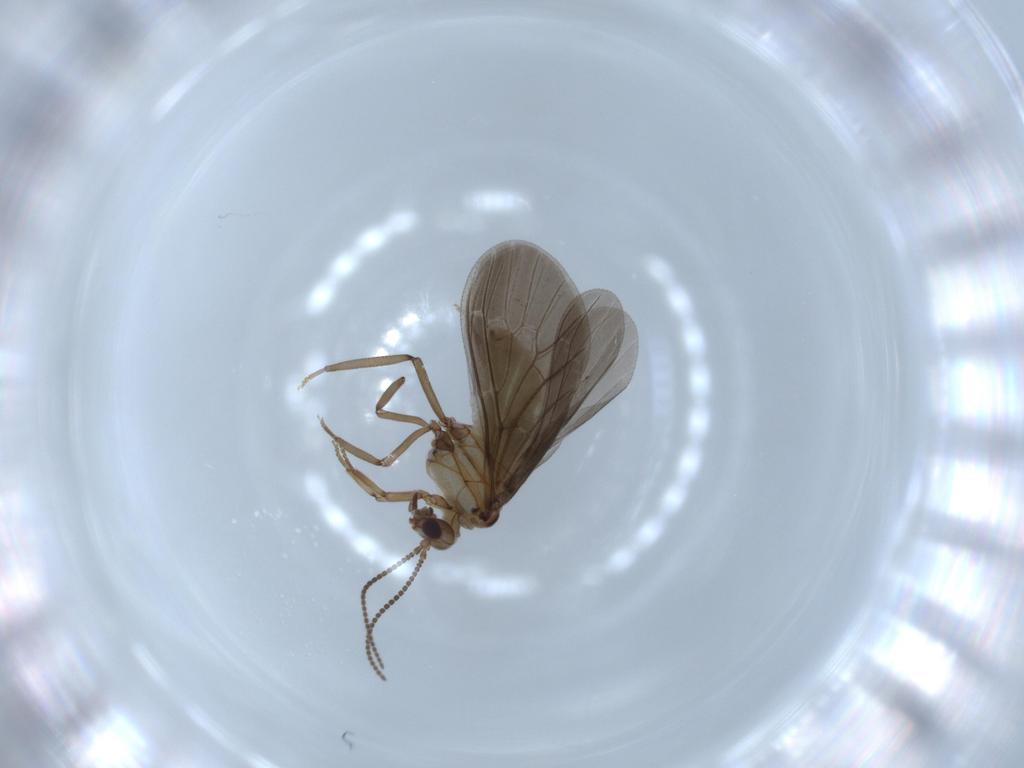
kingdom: Animalia
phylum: Arthropoda
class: Insecta
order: Neuroptera
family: Coniopterygidae
